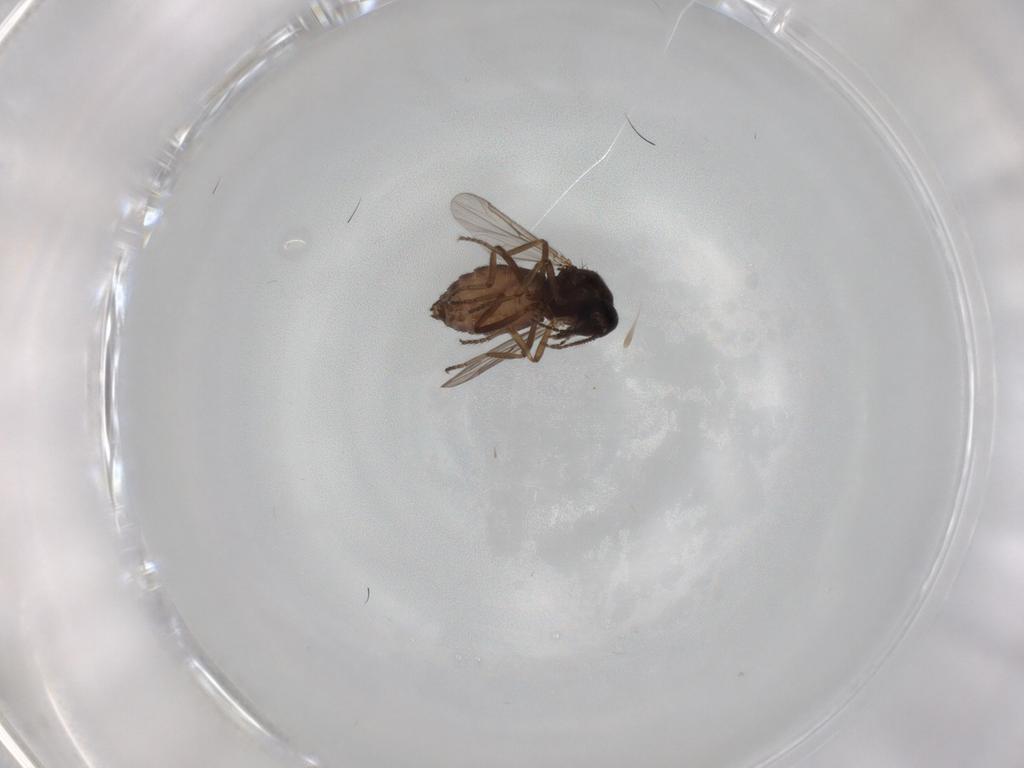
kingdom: Animalia
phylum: Arthropoda
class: Insecta
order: Diptera
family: Ceratopogonidae
